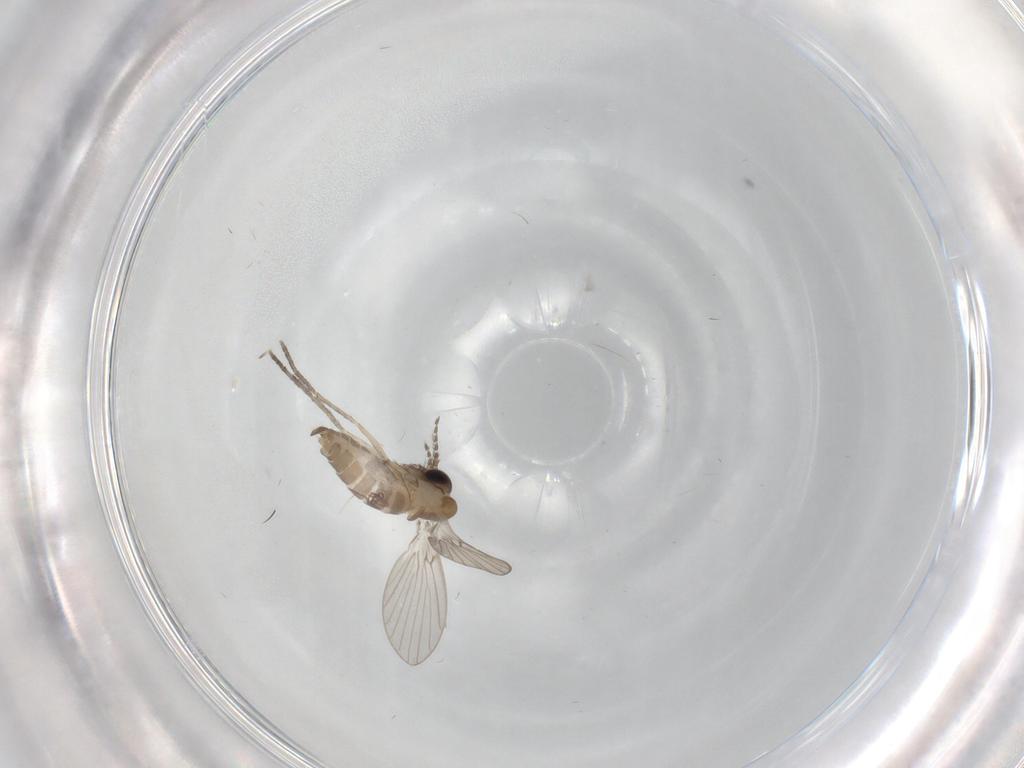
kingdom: Animalia
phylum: Arthropoda
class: Insecta
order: Diptera
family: Psychodidae
